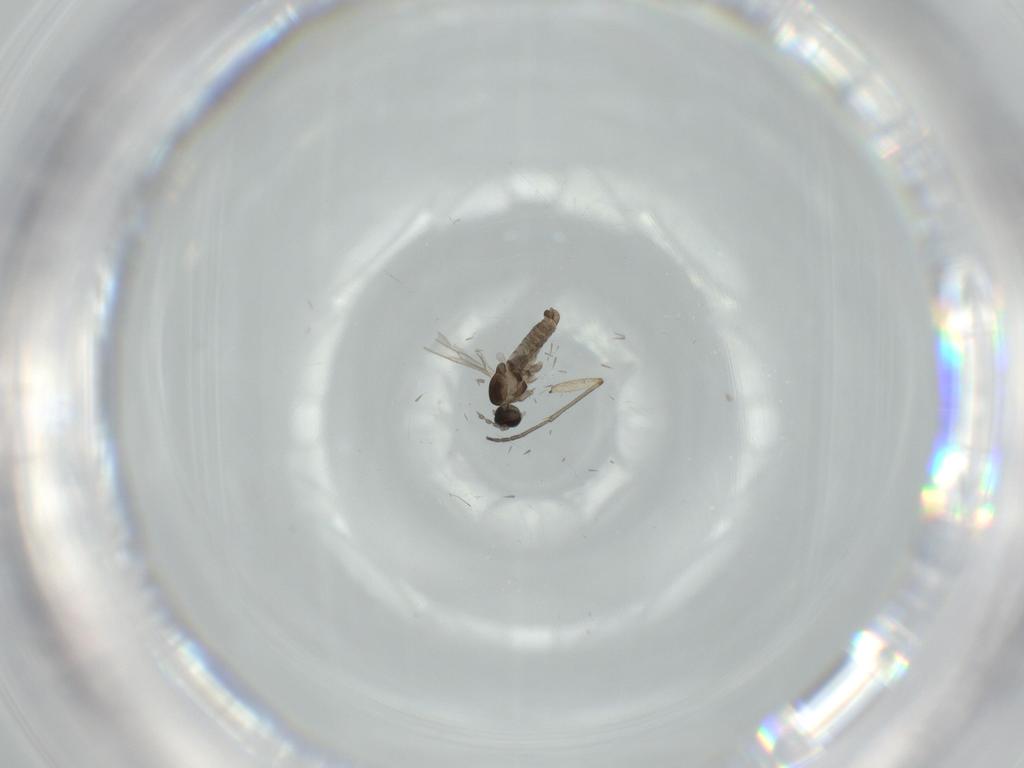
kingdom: Animalia
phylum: Arthropoda
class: Insecta
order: Diptera
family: Cecidomyiidae
